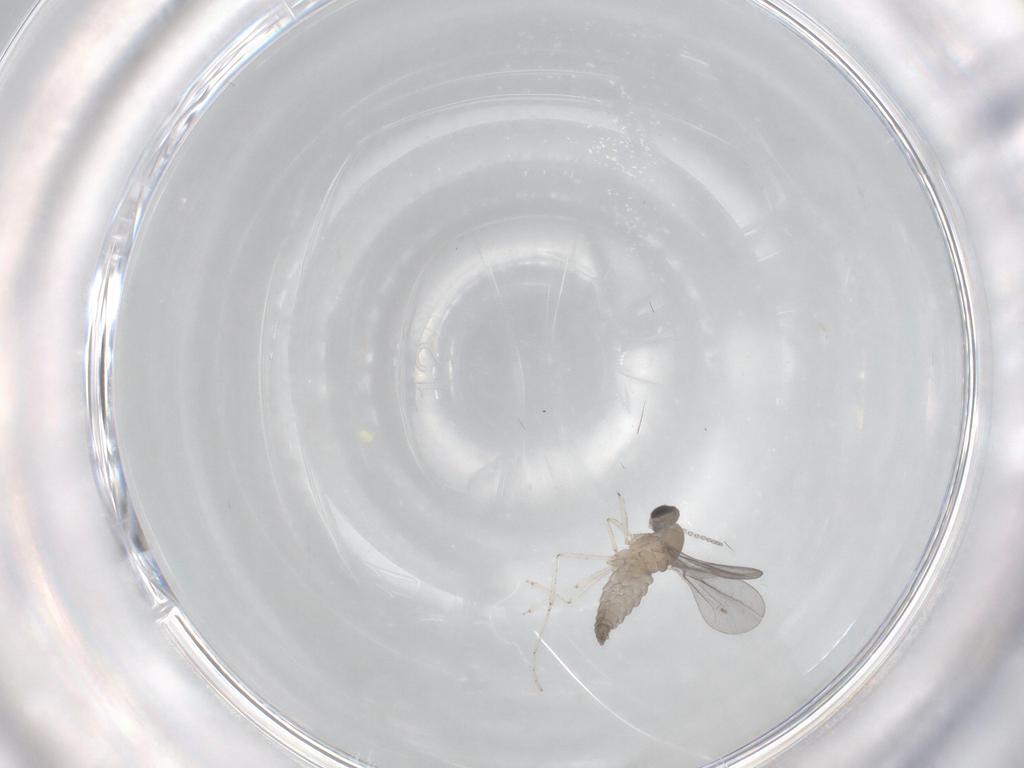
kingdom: Animalia
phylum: Arthropoda
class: Insecta
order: Diptera
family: Cecidomyiidae
